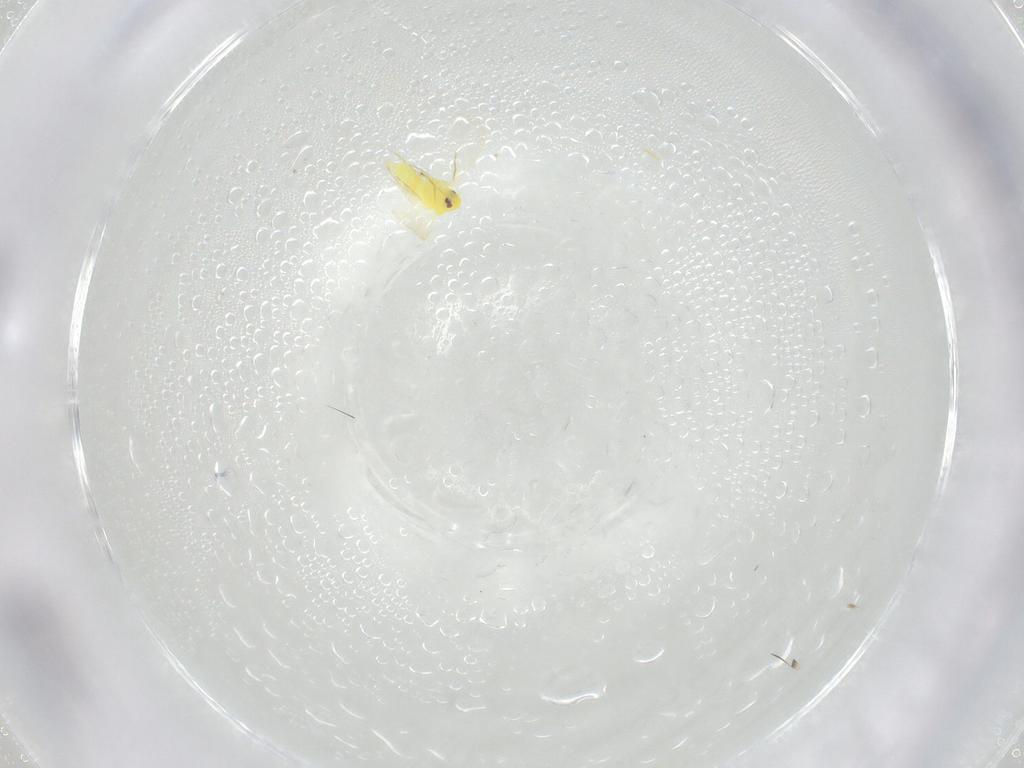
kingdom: Animalia
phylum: Arthropoda
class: Insecta
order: Hemiptera
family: Aleyrodidae
